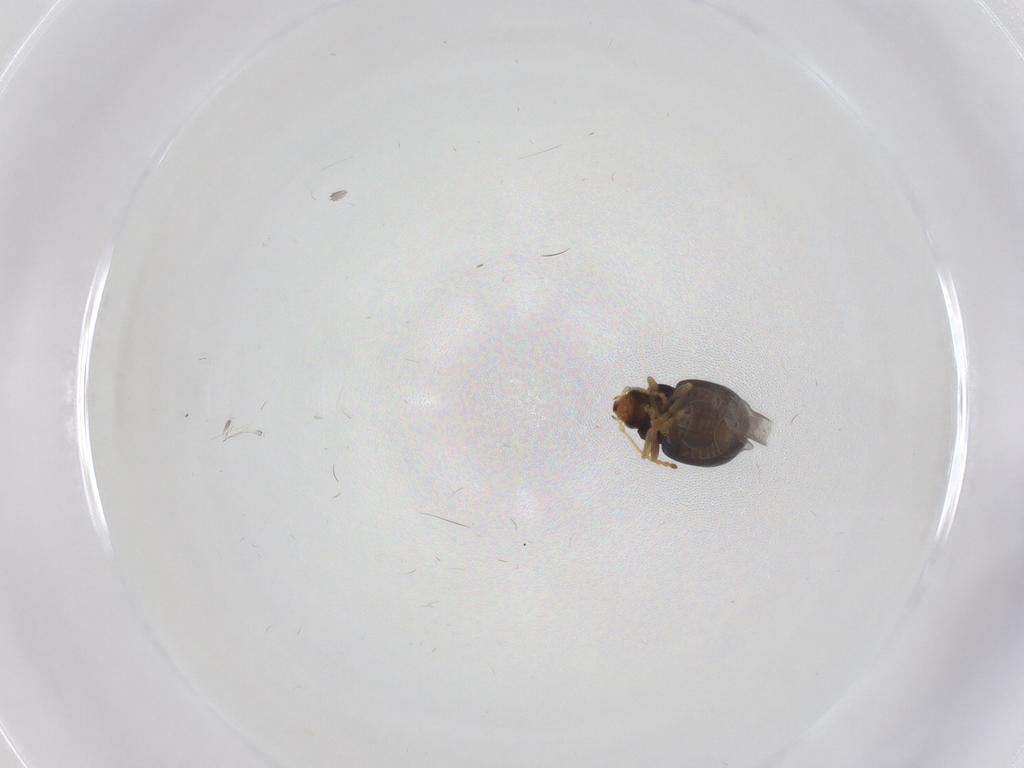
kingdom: Animalia
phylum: Arthropoda
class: Insecta
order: Coleoptera
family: Chrysomelidae
